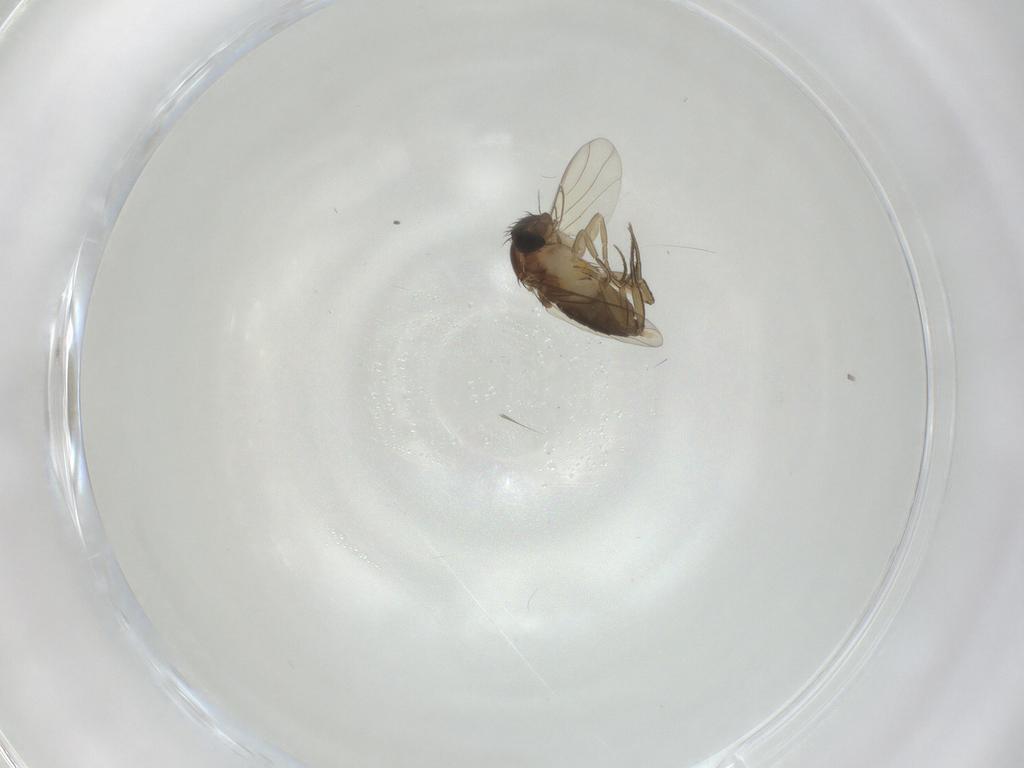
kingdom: Animalia
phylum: Arthropoda
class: Insecta
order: Diptera
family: Phoridae
